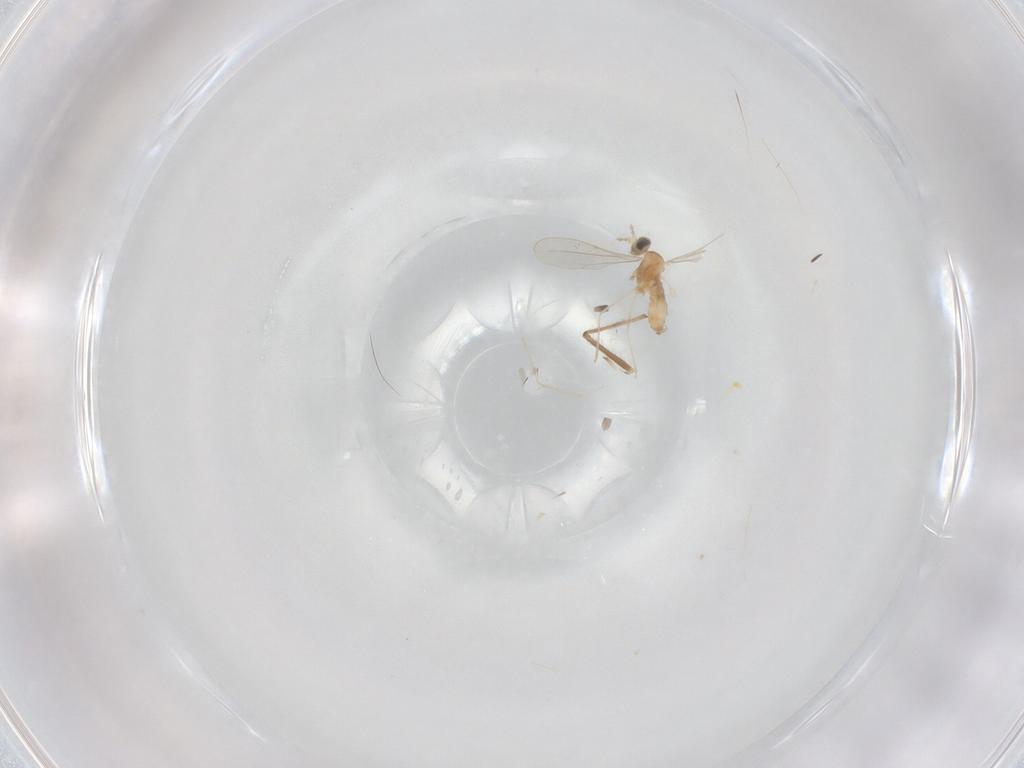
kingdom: Animalia
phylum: Arthropoda
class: Insecta
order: Diptera
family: Cecidomyiidae
